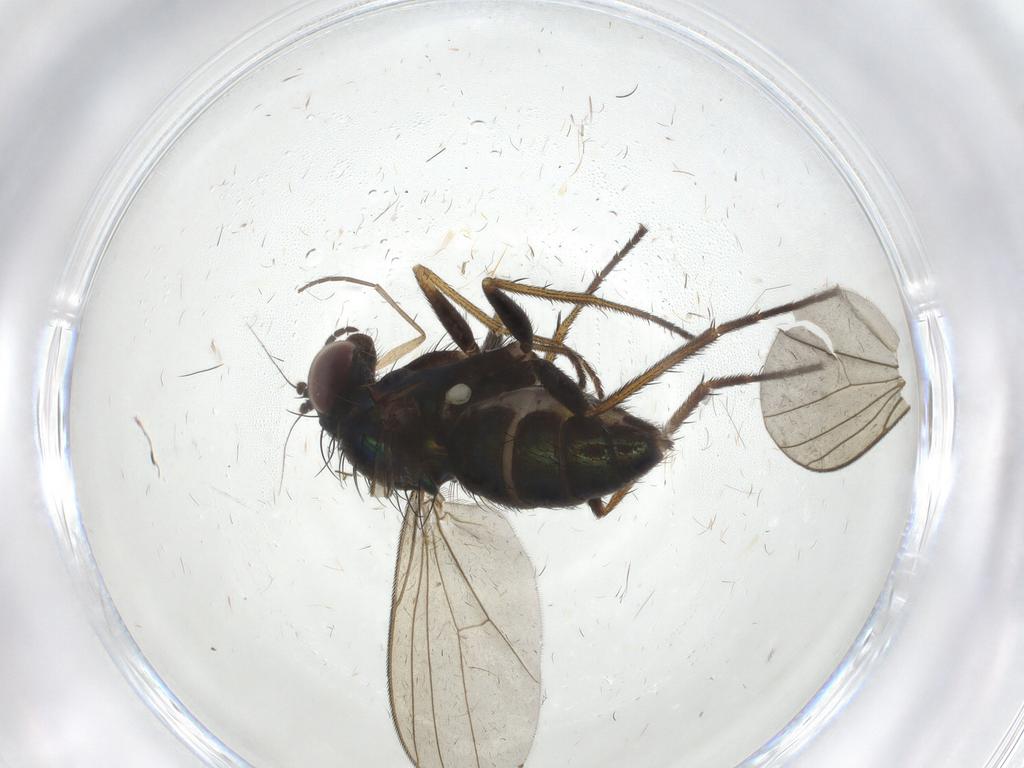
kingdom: Animalia
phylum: Arthropoda
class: Insecta
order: Diptera
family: Dolichopodidae
